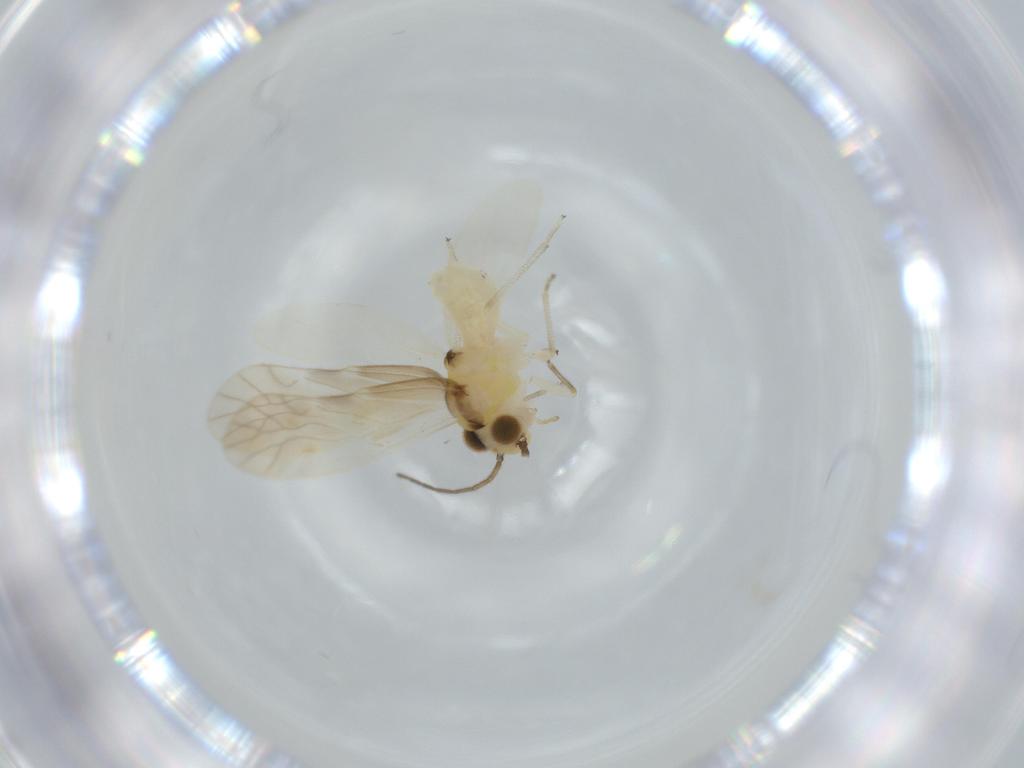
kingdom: Animalia
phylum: Arthropoda
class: Insecta
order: Psocodea
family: Caeciliusidae
